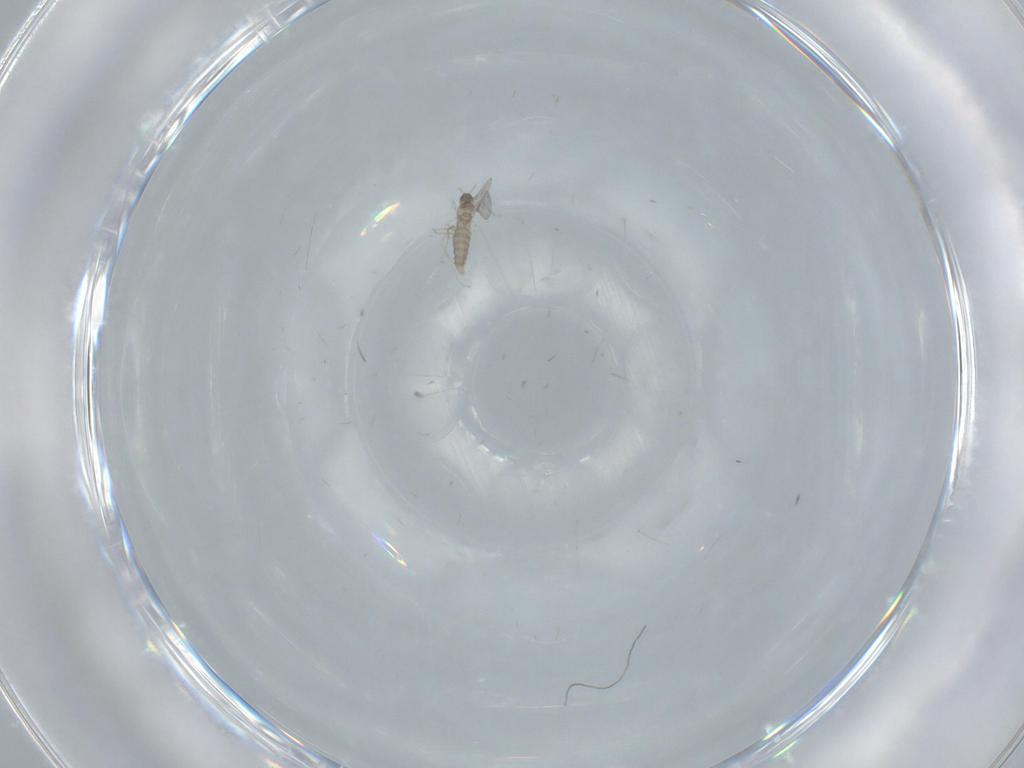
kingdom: Animalia
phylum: Arthropoda
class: Insecta
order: Diptera
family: Cecidomyiidae
